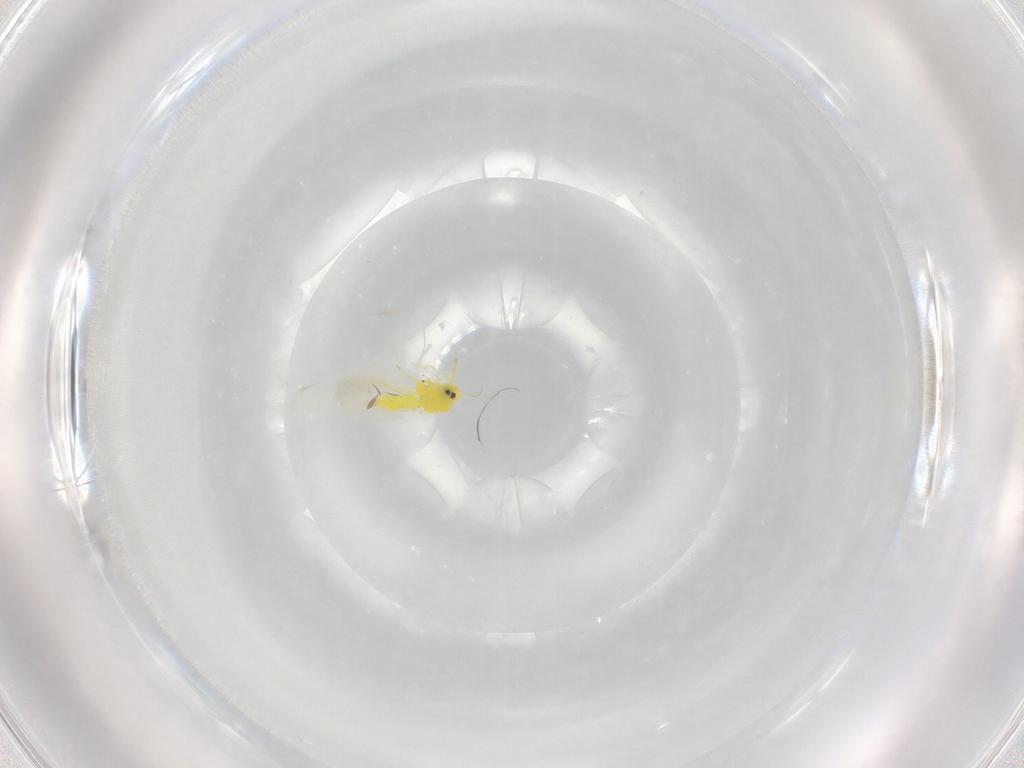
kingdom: Animalia
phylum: Arthropoda
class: Insecta
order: Hemiptera
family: Aleyrodidae
